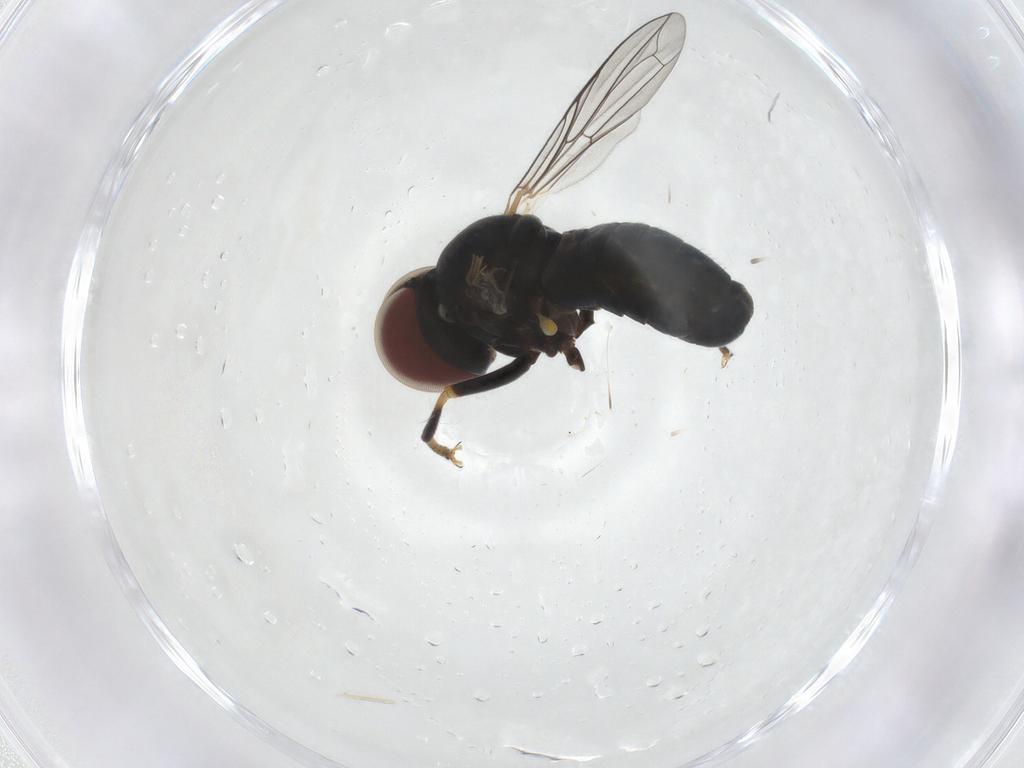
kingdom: Animalia
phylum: Arthropoda
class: Insecta
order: Diptera
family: Pipunculidae
